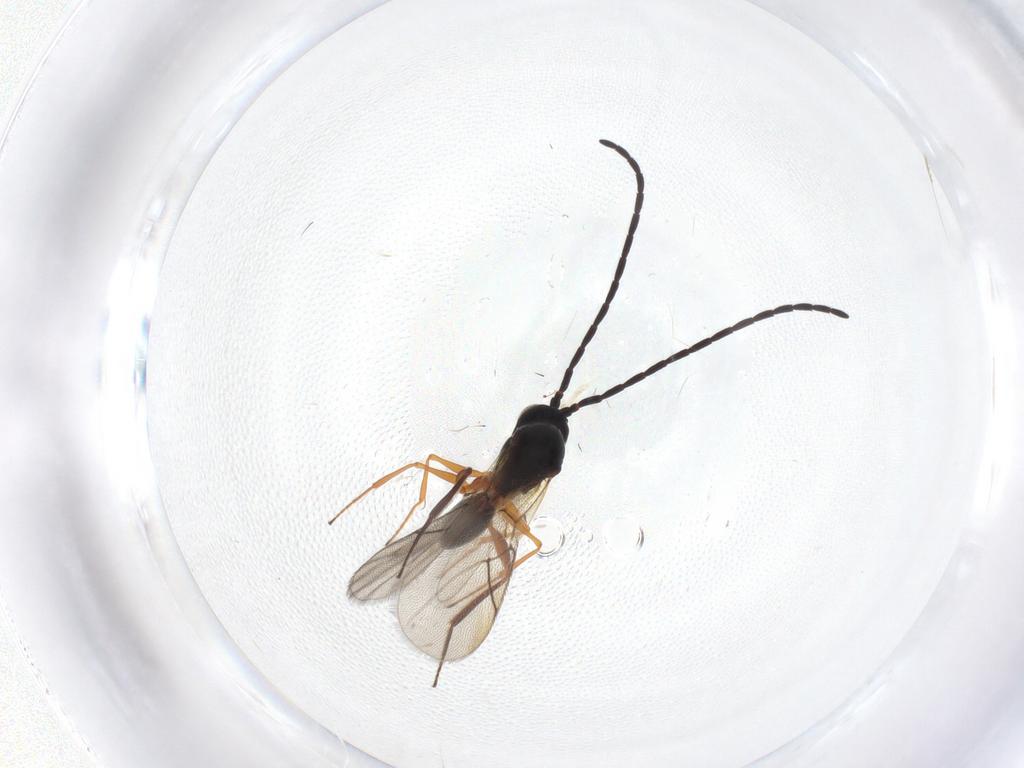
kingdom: Animalia
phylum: Arthropoda
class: Insecta
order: Hymenoptera
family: Figitidae
